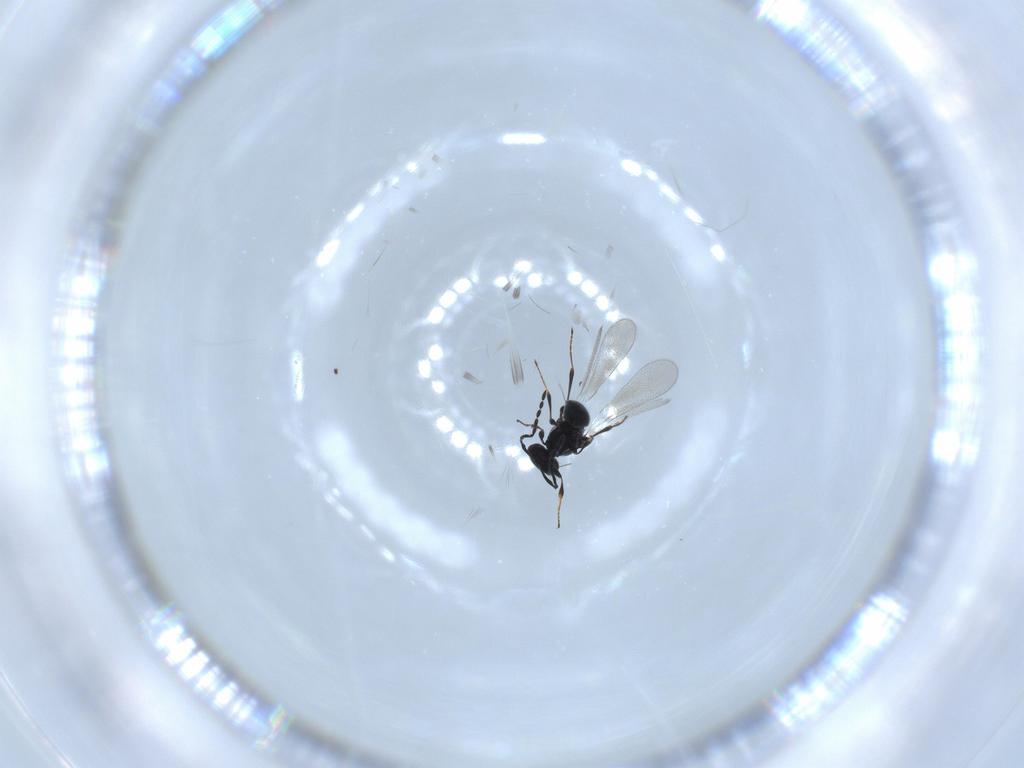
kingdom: Animalia
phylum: Arthropoda
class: Insecta
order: Hymenoptera
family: Platygastridae
